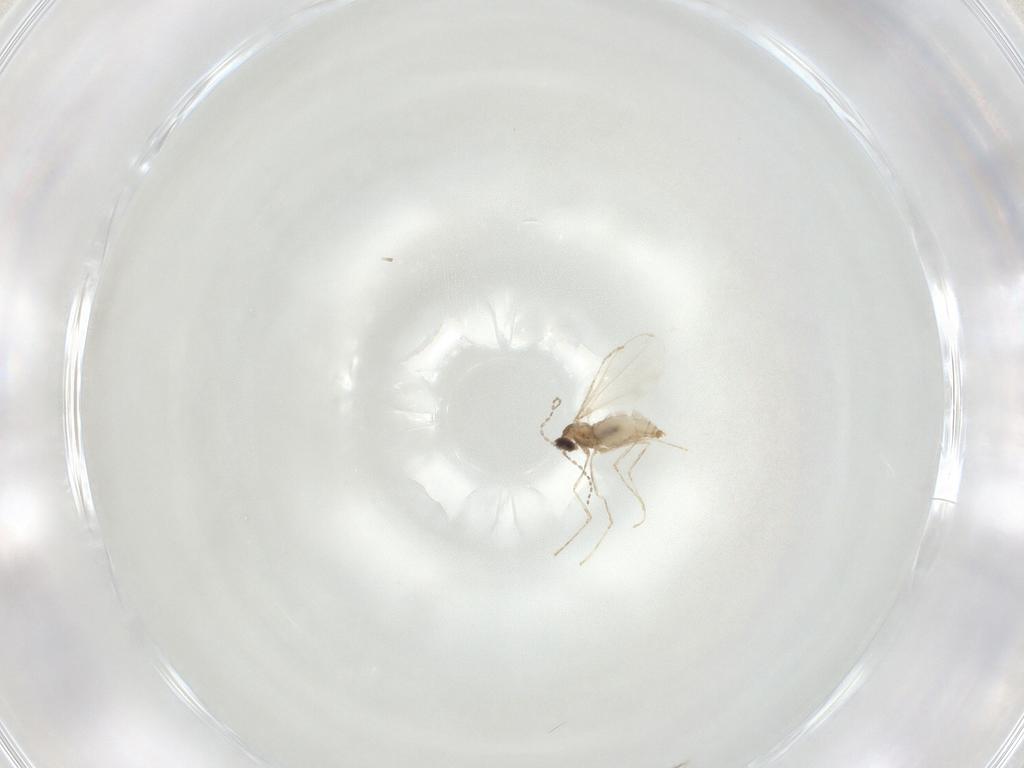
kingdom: Animalia
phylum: Arthropoda
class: Insecta
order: Diptera
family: Cecidomyiidae
